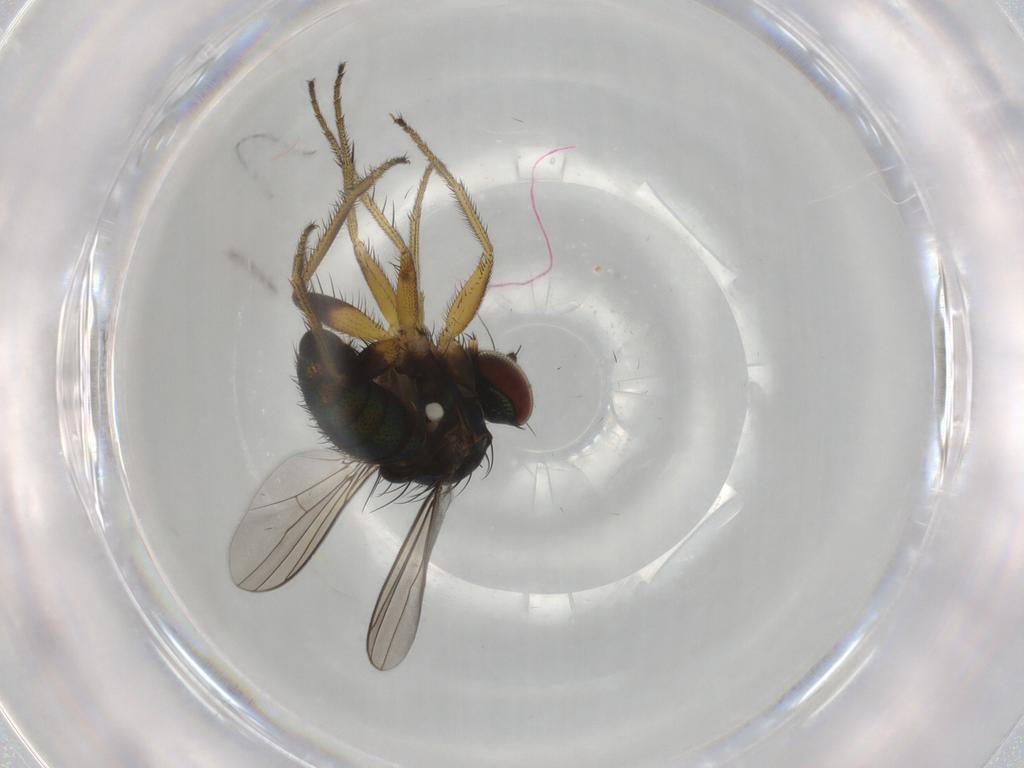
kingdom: Animalia
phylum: Arthropoda
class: Insecta
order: Diptera
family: Dolichopodidae
